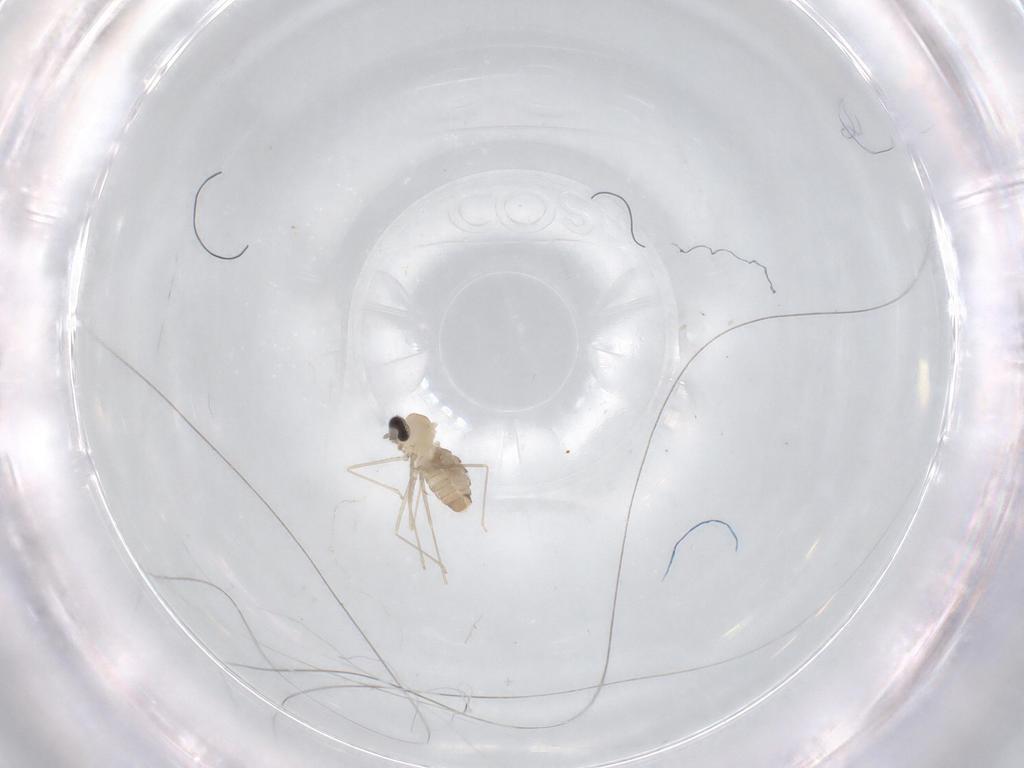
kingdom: Animalia
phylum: Arthropoda
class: Insecta
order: Diptera
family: Cecidomyiidae
